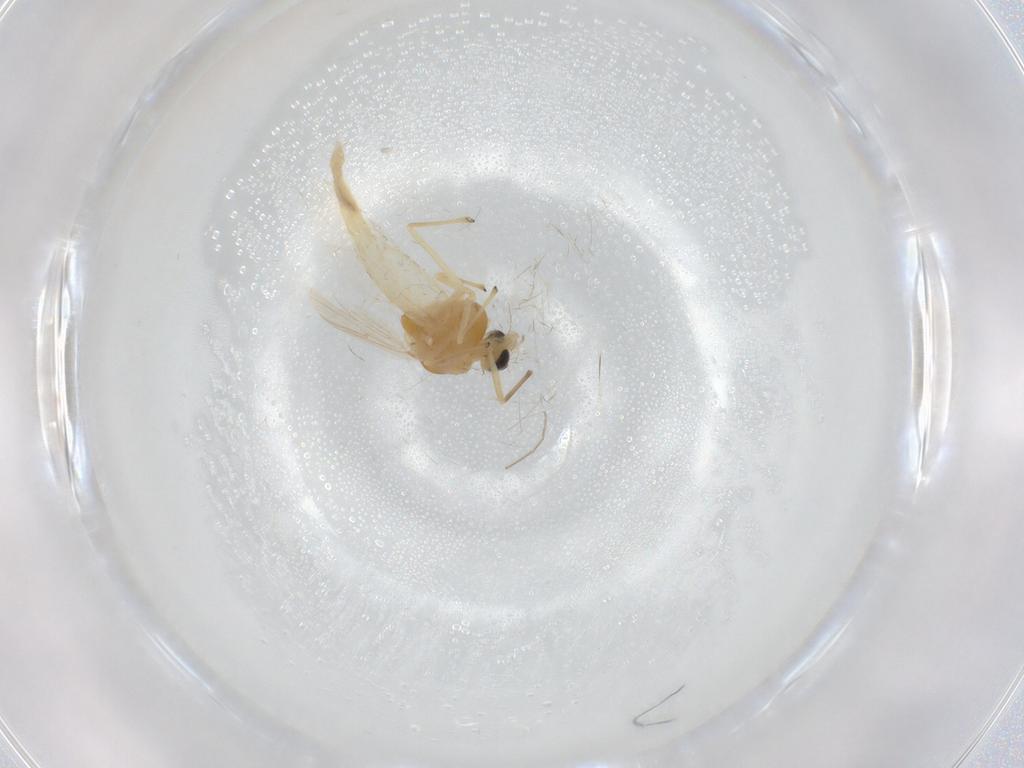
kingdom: Animalia
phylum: Arthropoda
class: Insecta
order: Diptera
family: Chironomidae
